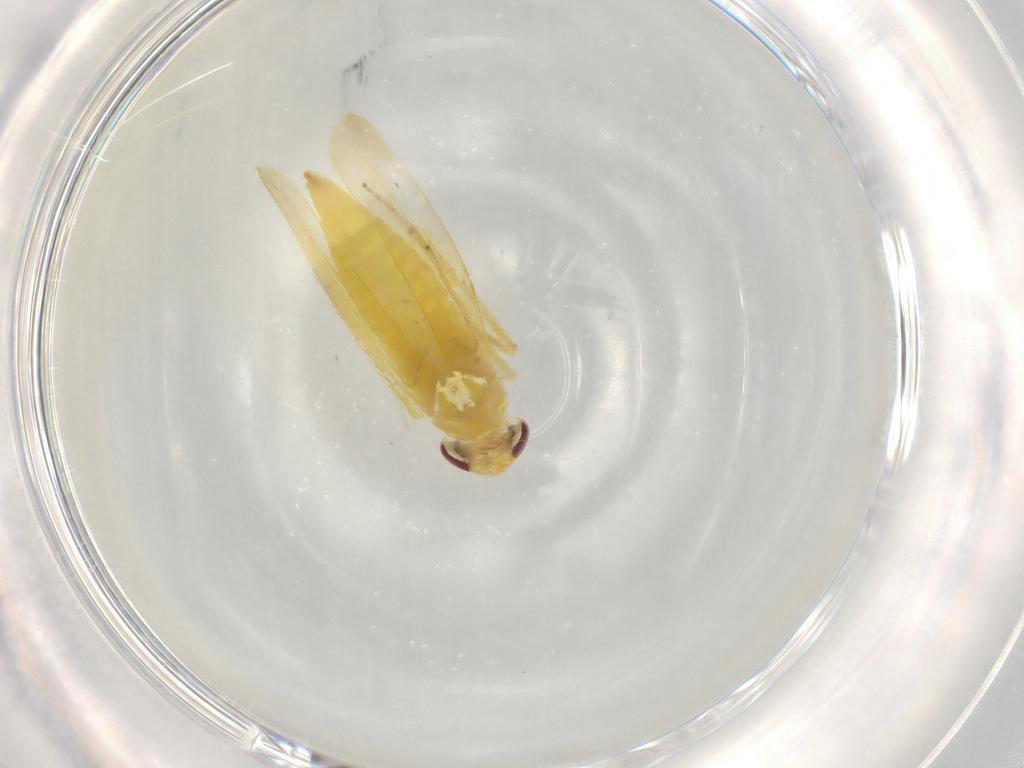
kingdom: Animalia
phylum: Arthropoda
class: Insecta
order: Hemiptera
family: Cicadellidae
